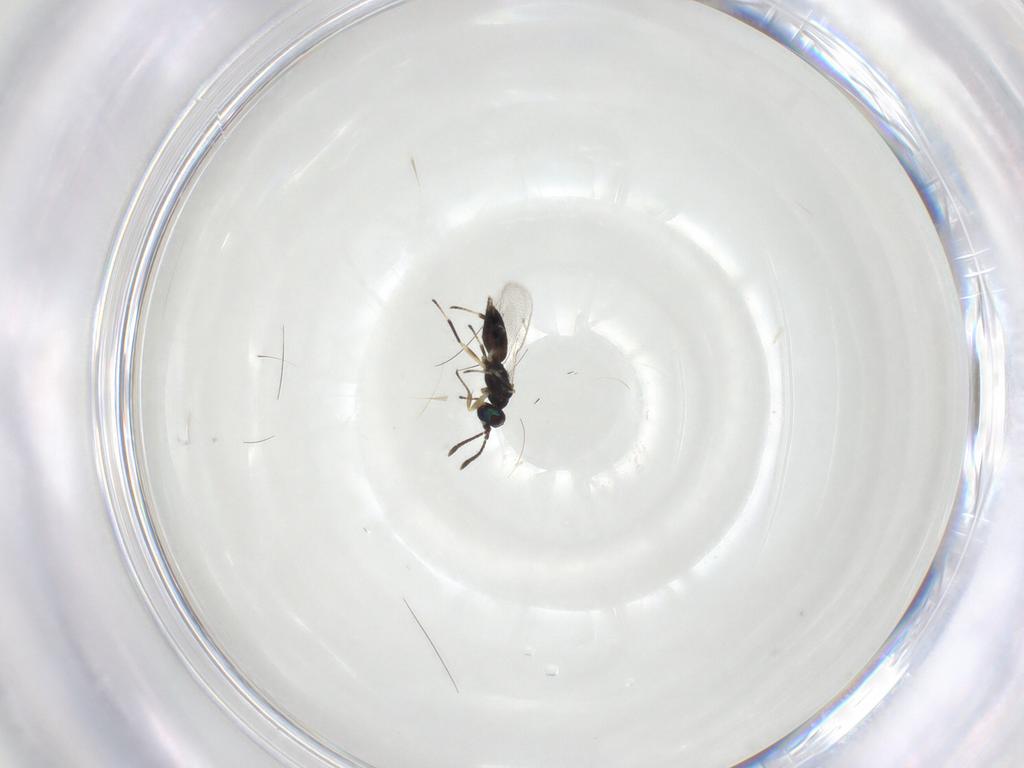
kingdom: Animalia
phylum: Arthropoda
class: Insecta
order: Hymenoptera
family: Eupelmidae
